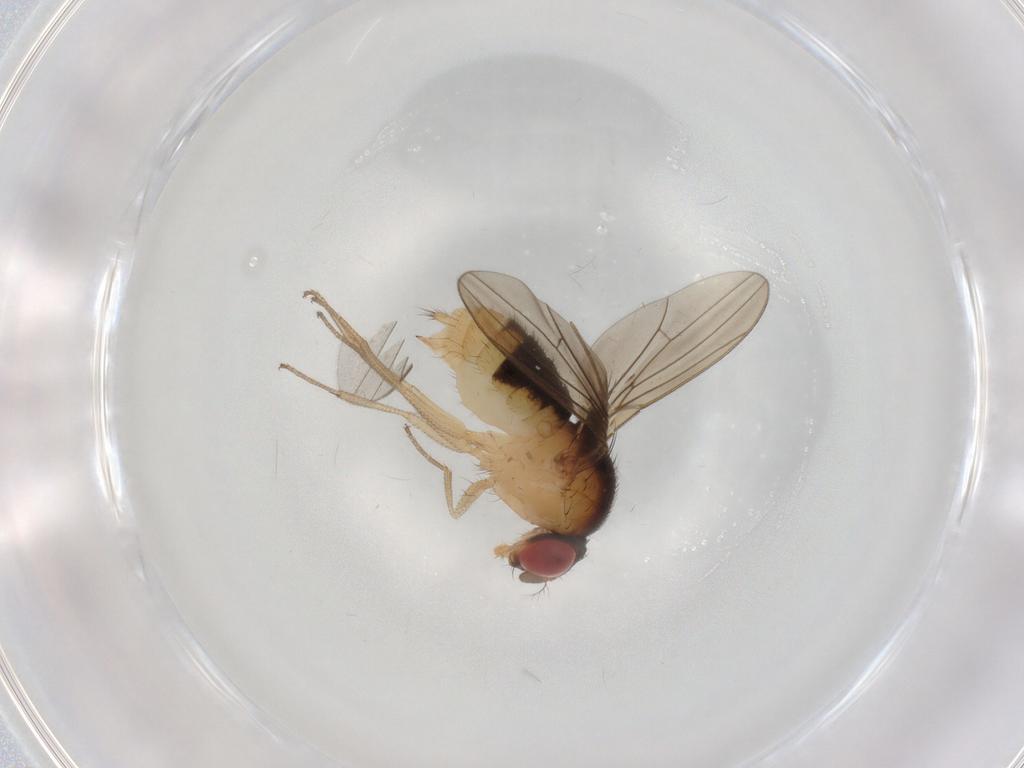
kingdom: Animalia
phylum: Arthropoda
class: Insecta
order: Diptera
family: Drosophilidae
